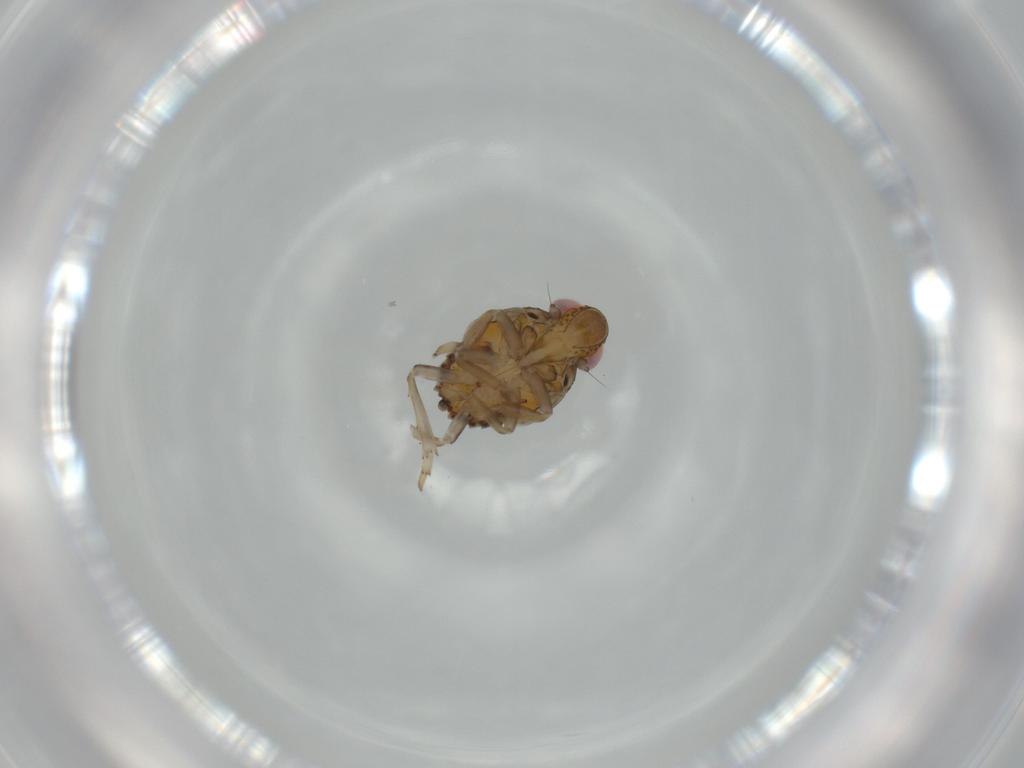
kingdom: Animalia
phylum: Arthropoda
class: Insecta
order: Hemiptera
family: Issidae
